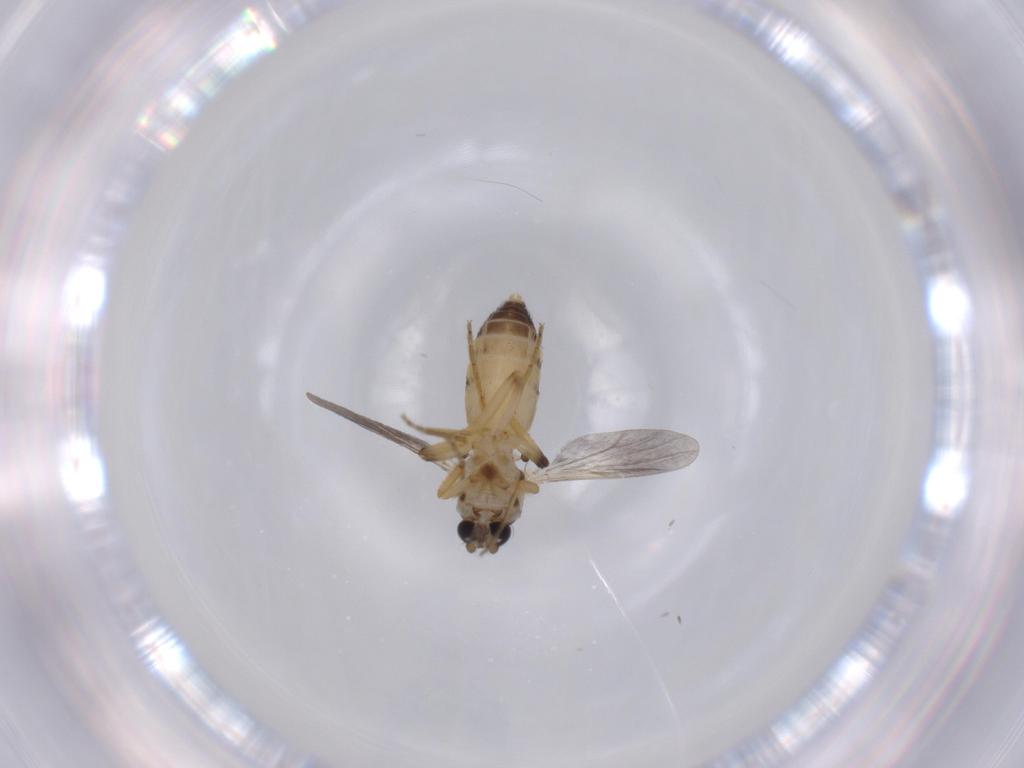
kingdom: Animalia
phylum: Arthropoda
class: Insecta
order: Diptera
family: Ceratopogonidae
